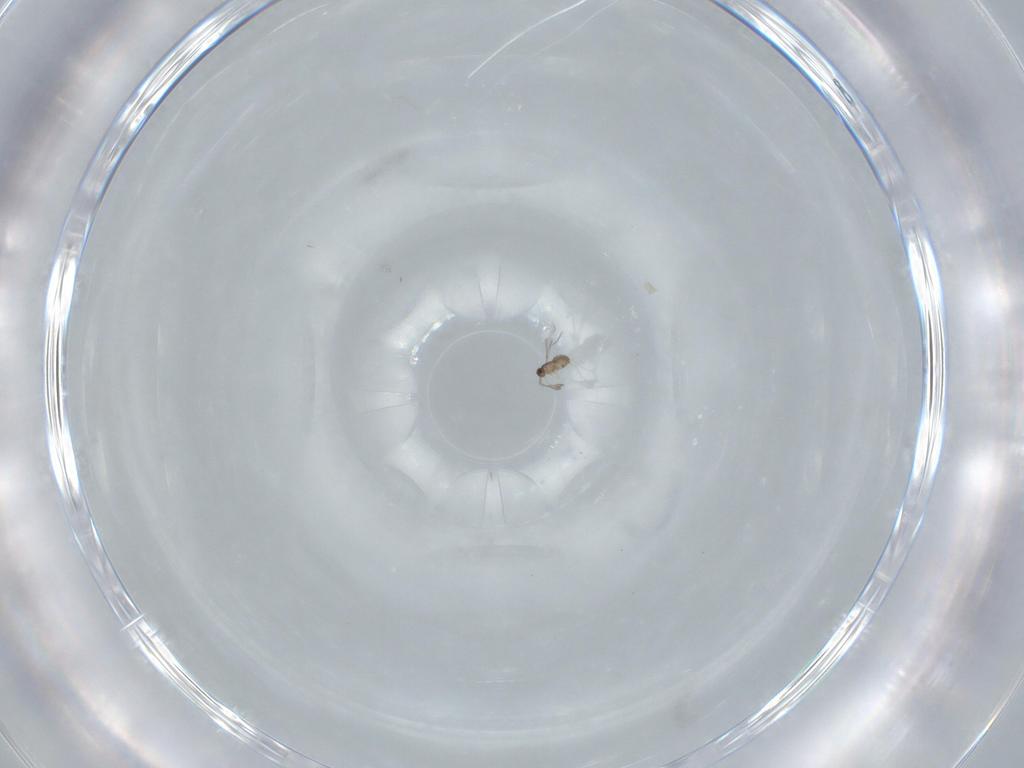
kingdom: Animalia
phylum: Arthropoda
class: Insecta
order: Hymenoptera
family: Mymaridae
